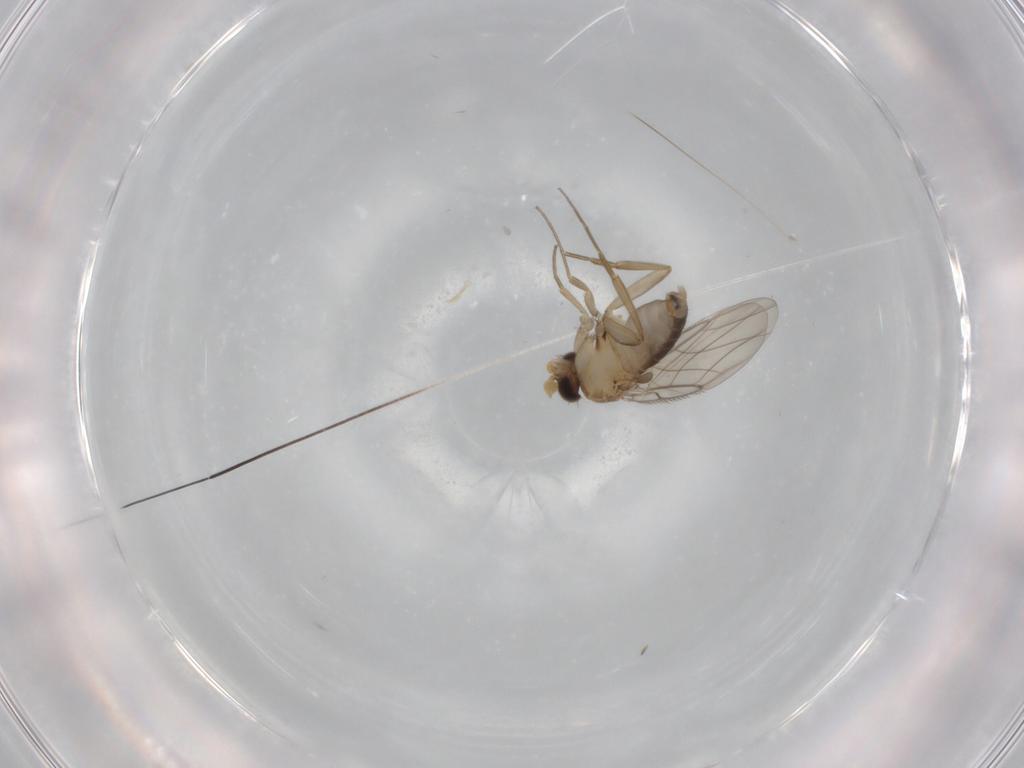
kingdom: Animalia
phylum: Arthropoda
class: Insecta
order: Diptera
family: Phoridae
